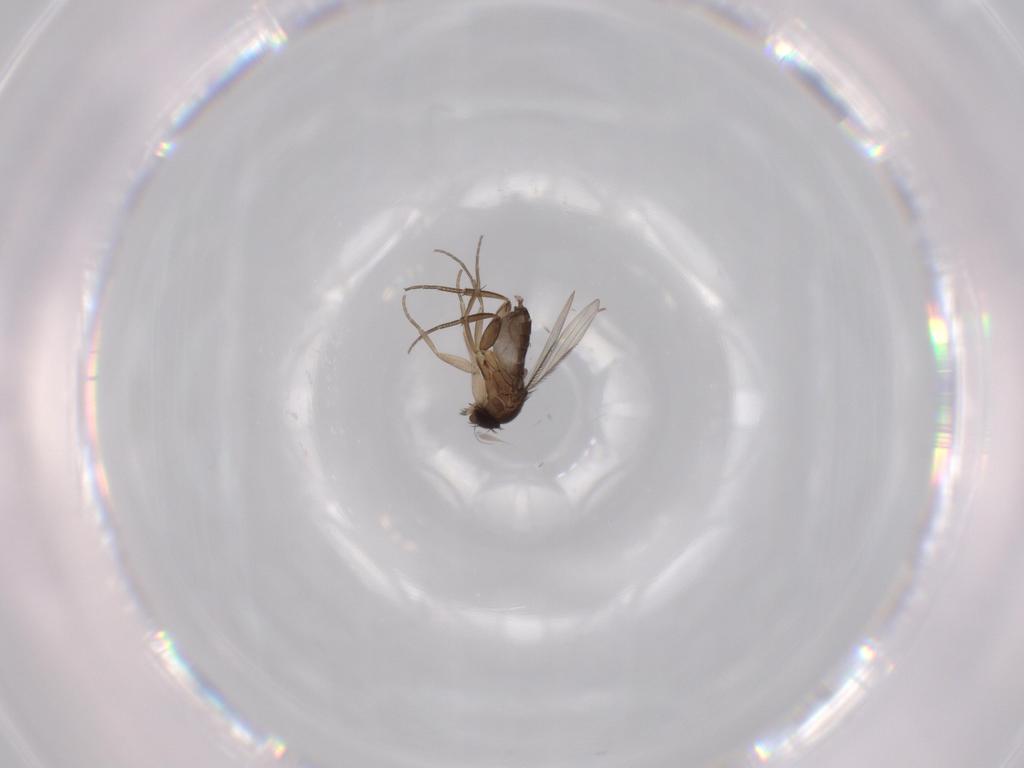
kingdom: Animalia
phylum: Arthropoda
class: Insecta
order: Diptera
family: Phoridae
